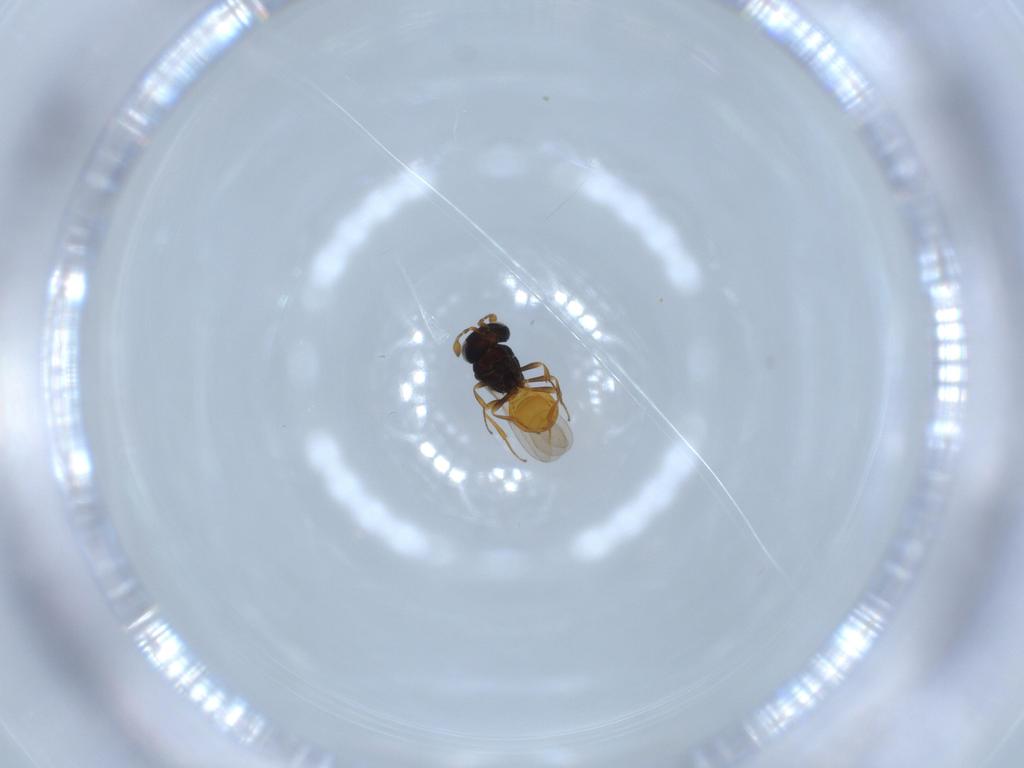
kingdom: Animalia
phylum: Arthropoda
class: Insecta
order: Hymenoptera
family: Scelionidae
